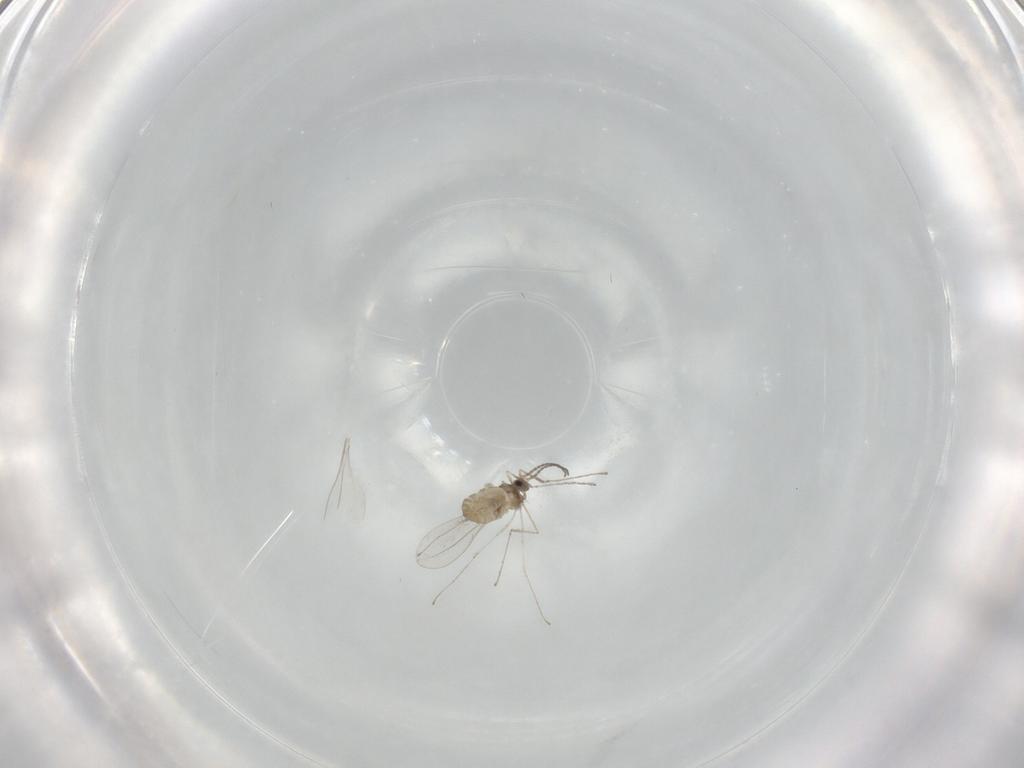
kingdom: Animalia
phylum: Arthropoda
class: Insecta
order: Diptera
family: Cecidomyiidae
